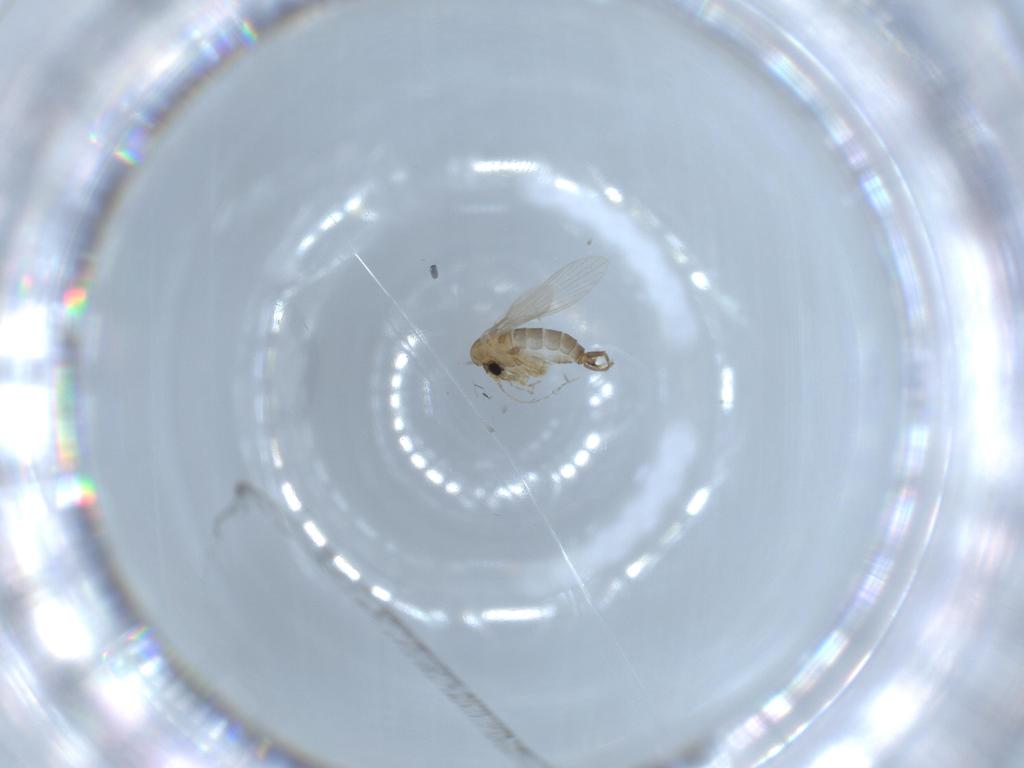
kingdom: Animalia
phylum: Arthropoda
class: Insecta
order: Diptera
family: Psychodidae
